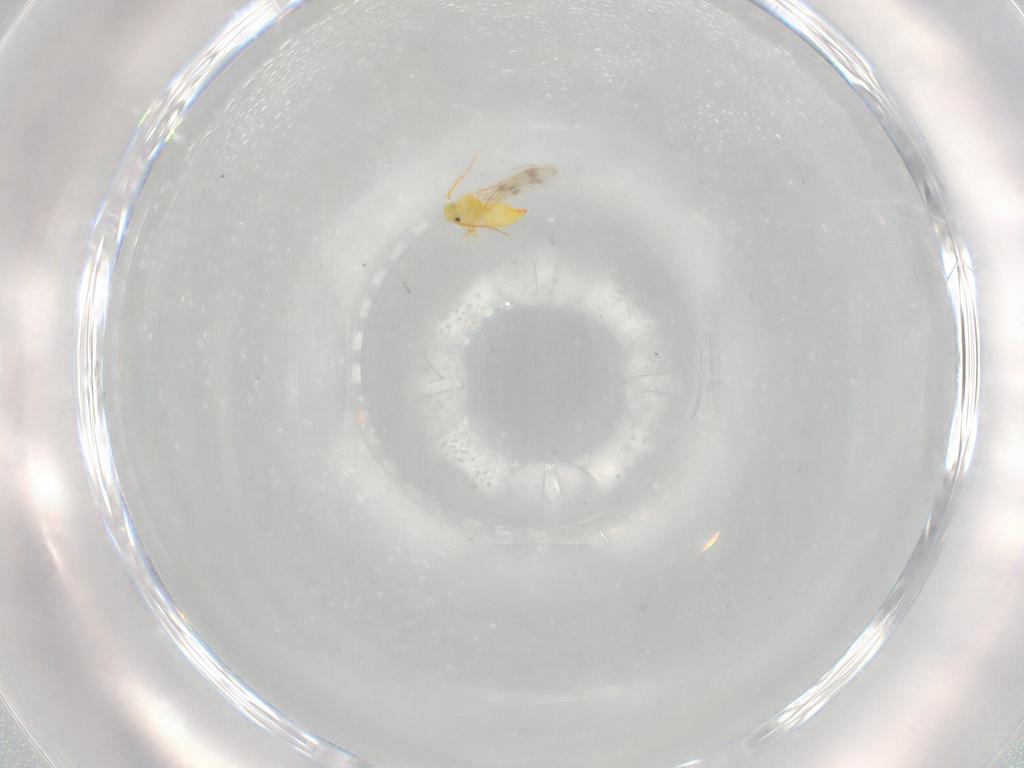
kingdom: Animalia
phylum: Arthropoda
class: Insecta
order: Hemiptera
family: Aleyrodidae
